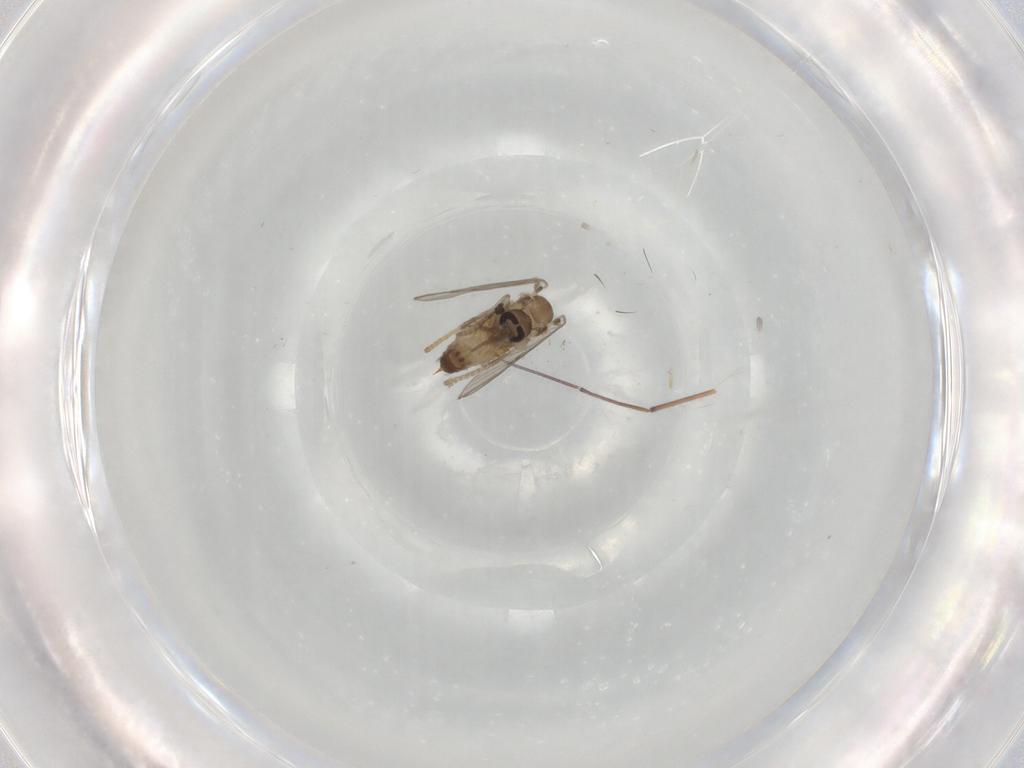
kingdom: Animalia
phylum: Arthropoda
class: Insecta
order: Diptera
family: Psychodidae
